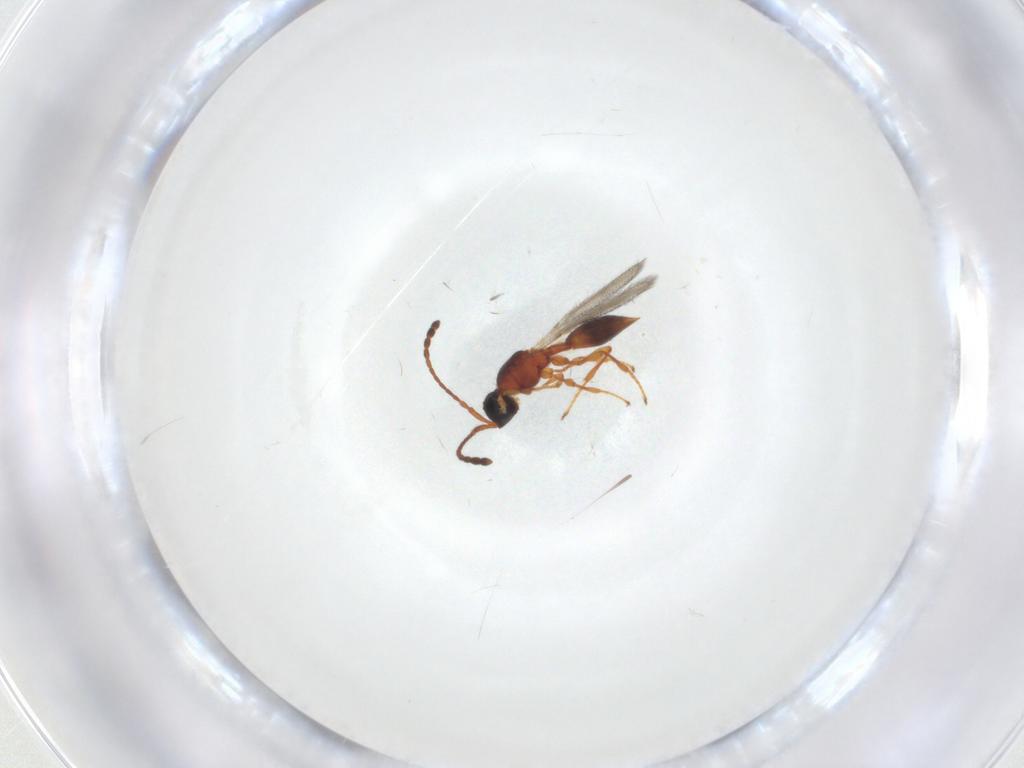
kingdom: Animalia
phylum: Arthropoda
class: Insecta
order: Hymenoptera
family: Diapriidae
